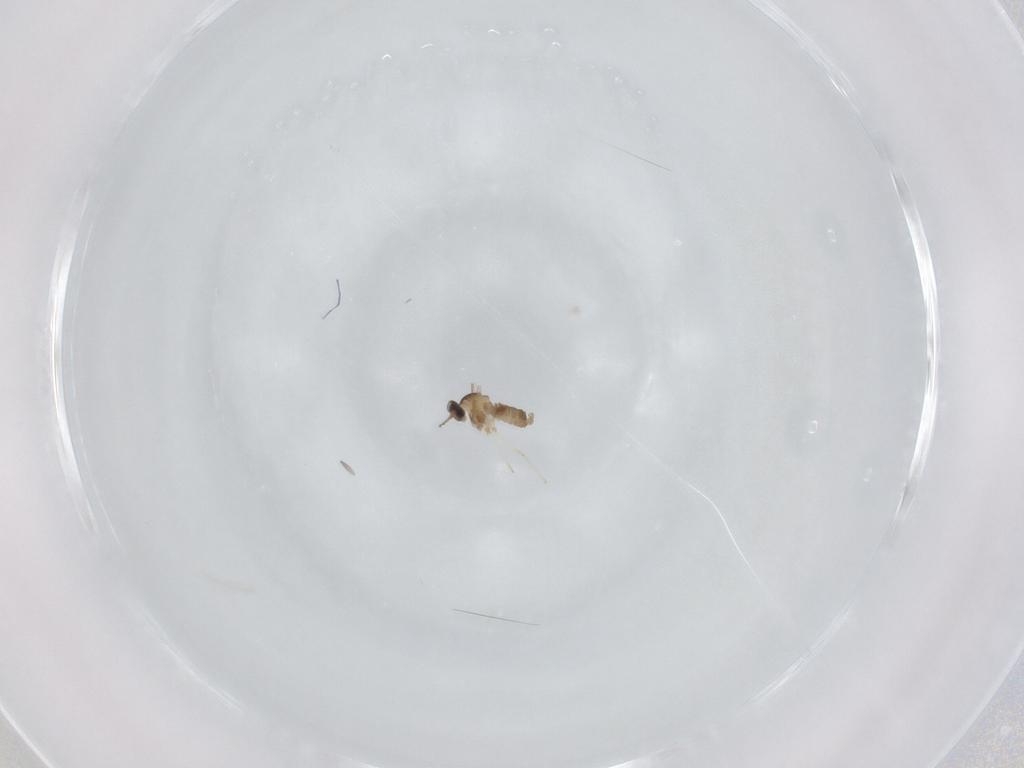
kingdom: Animalia
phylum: Arthropoda
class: Insecta
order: Diptera
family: Cecidomyiidae
